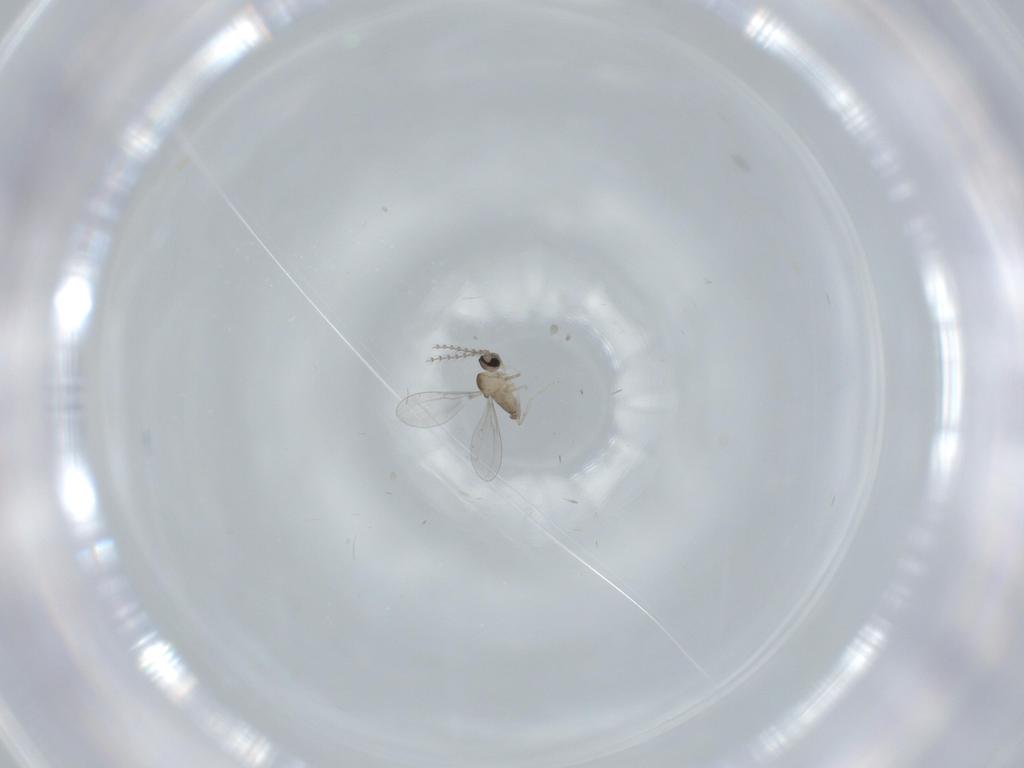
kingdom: Animalia
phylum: Arthropoda
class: Insecta
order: Diptera
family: Cecidomyiidae
